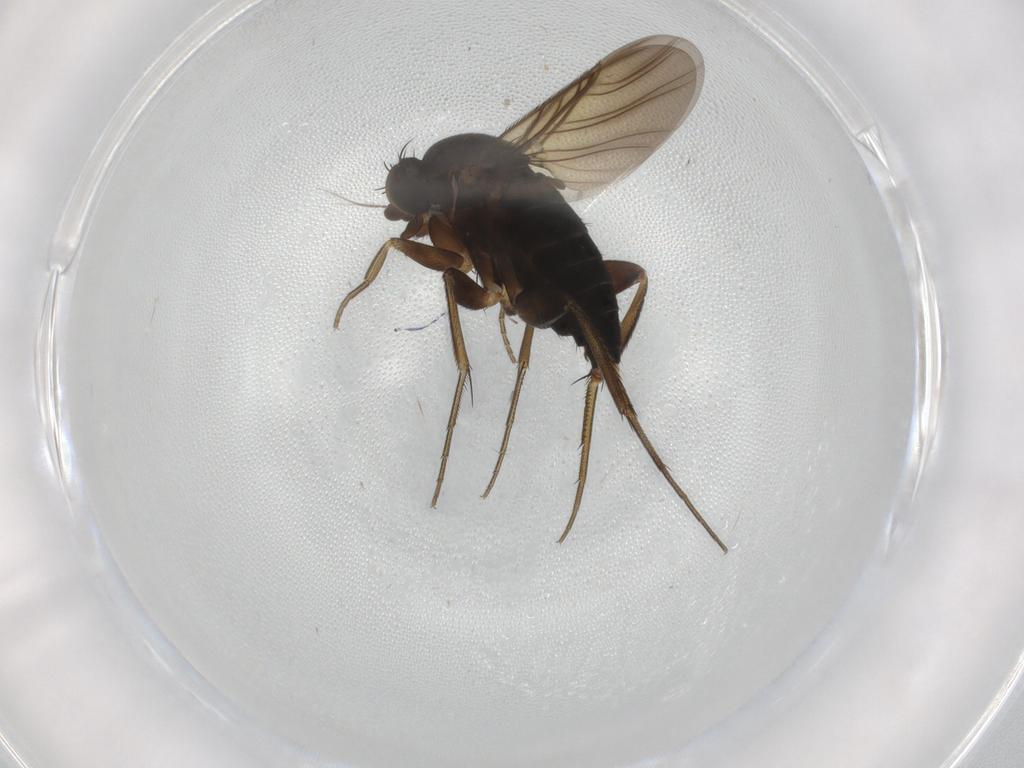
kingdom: Animalia
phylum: Arthropoda
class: Insecta
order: Diptera
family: Phoridae
